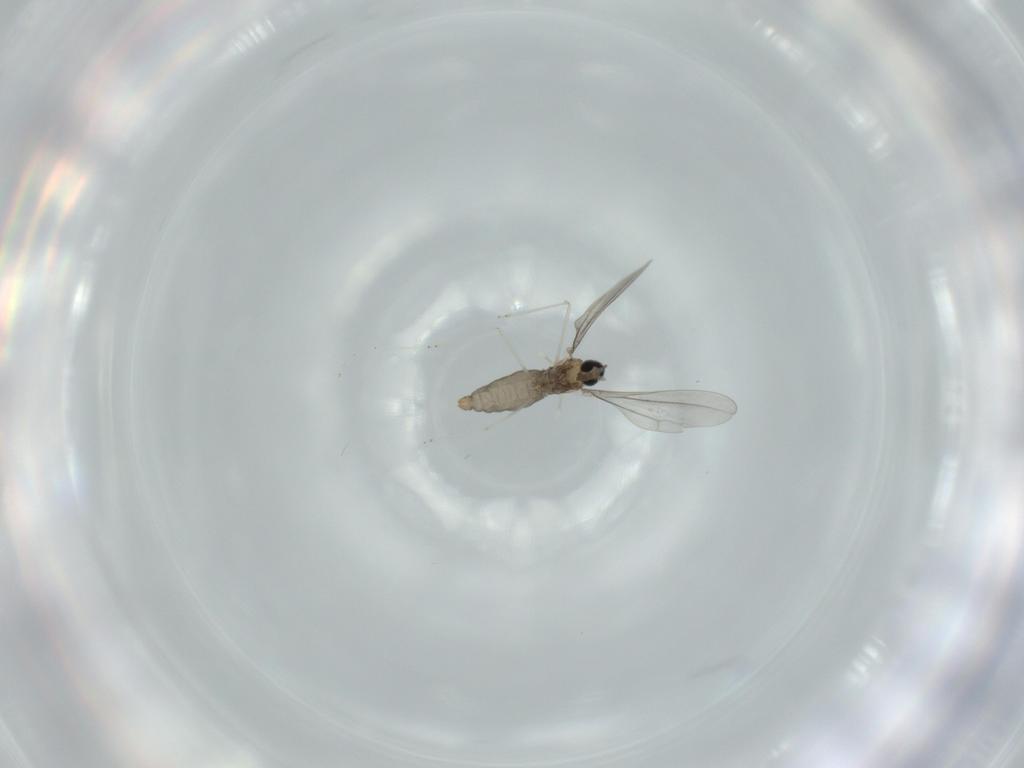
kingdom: Animalia
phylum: Arthropoda
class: Insecta
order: Diptera
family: Cecidomyiidae
